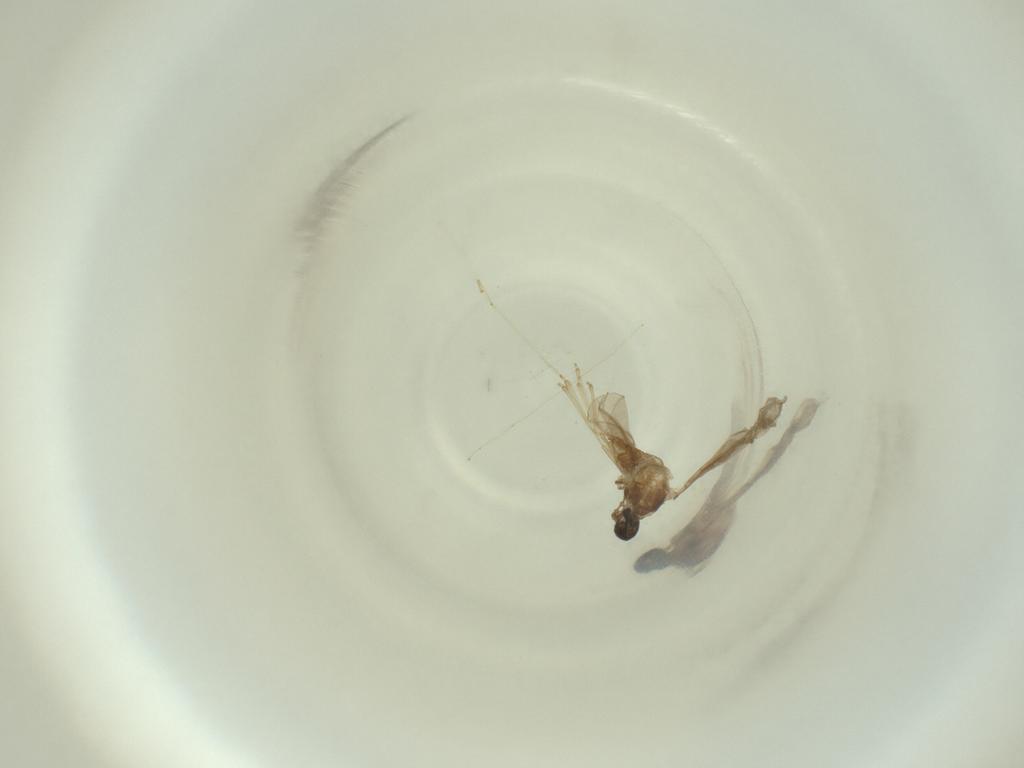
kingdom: Animalia
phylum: Arthropoda
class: Insecta
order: Diptera
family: Cecidomyiidae
